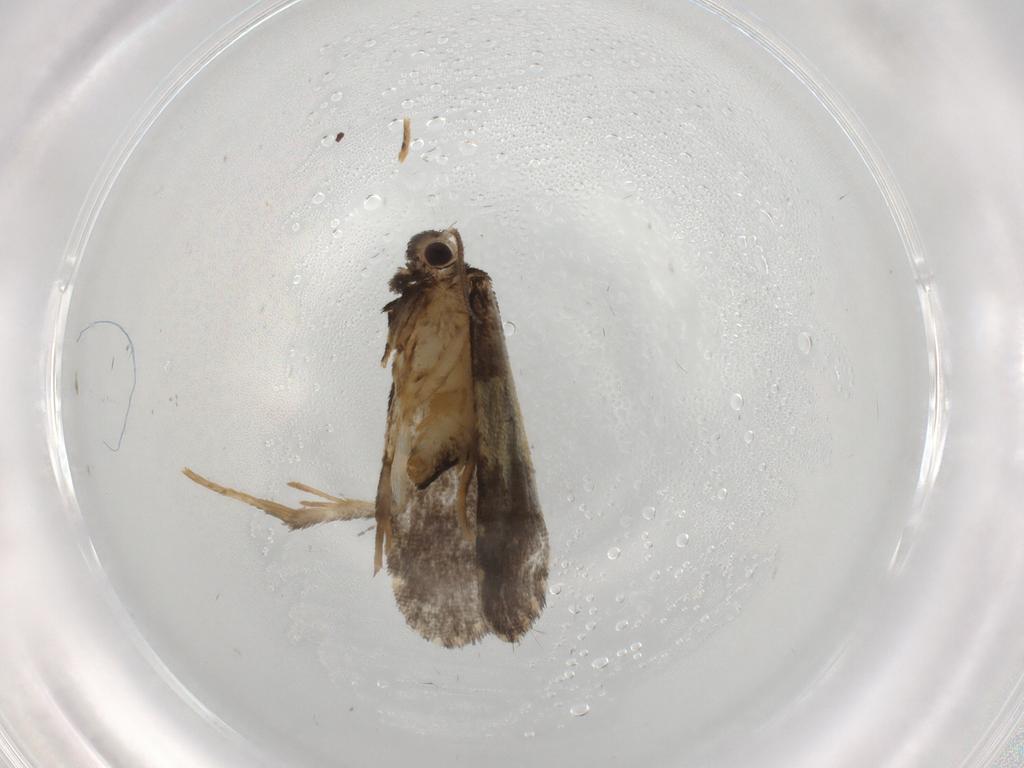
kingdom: Animalia
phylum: Arthropoda
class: Insecta
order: Lepidoptera
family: Psychidae
